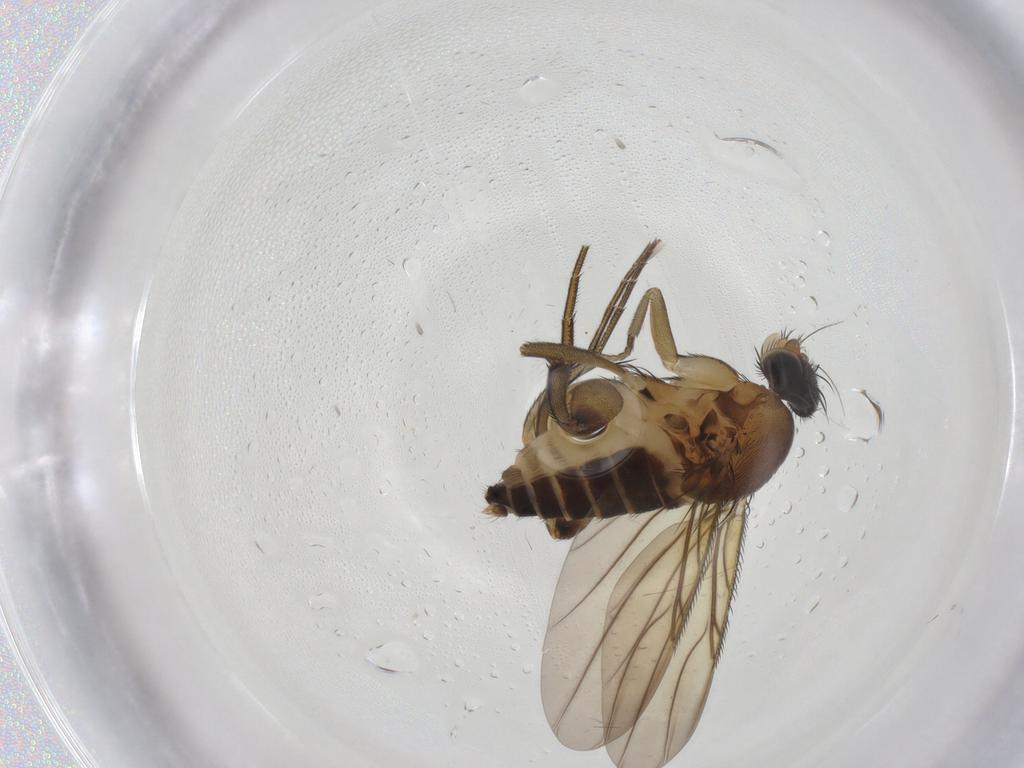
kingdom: Animalia
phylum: Arthropoda
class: Insecta
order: Diptera
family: Phoridae
